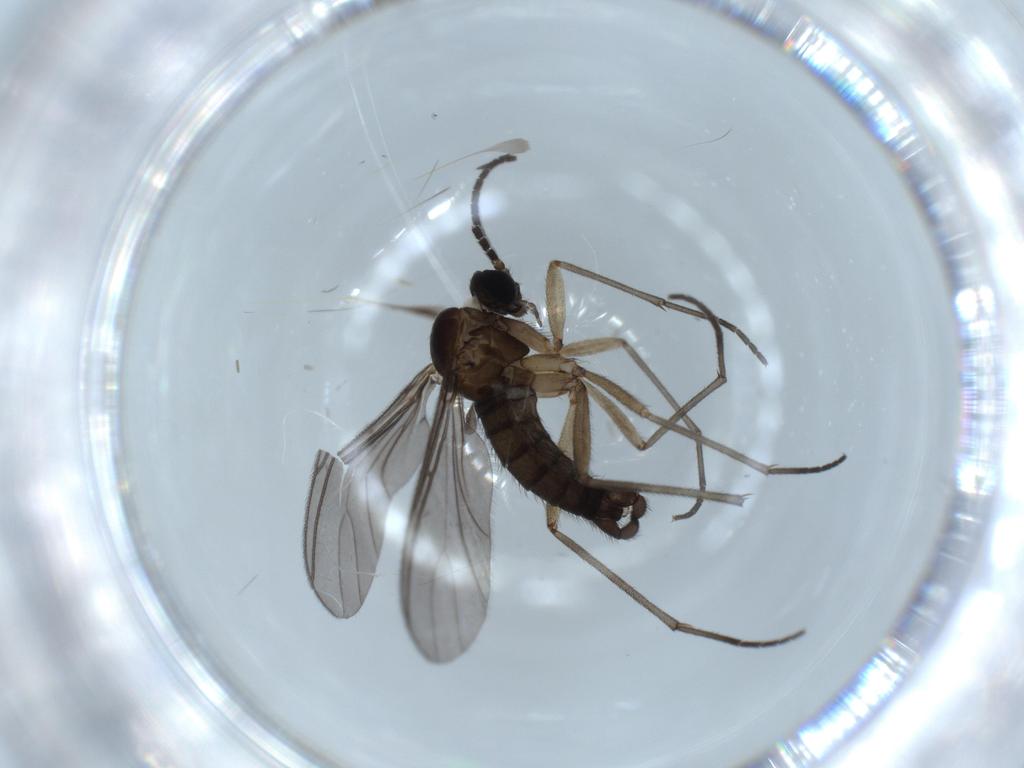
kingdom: Animalia
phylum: Arthropoda
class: Insecta
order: Diptera
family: Sciaridae
